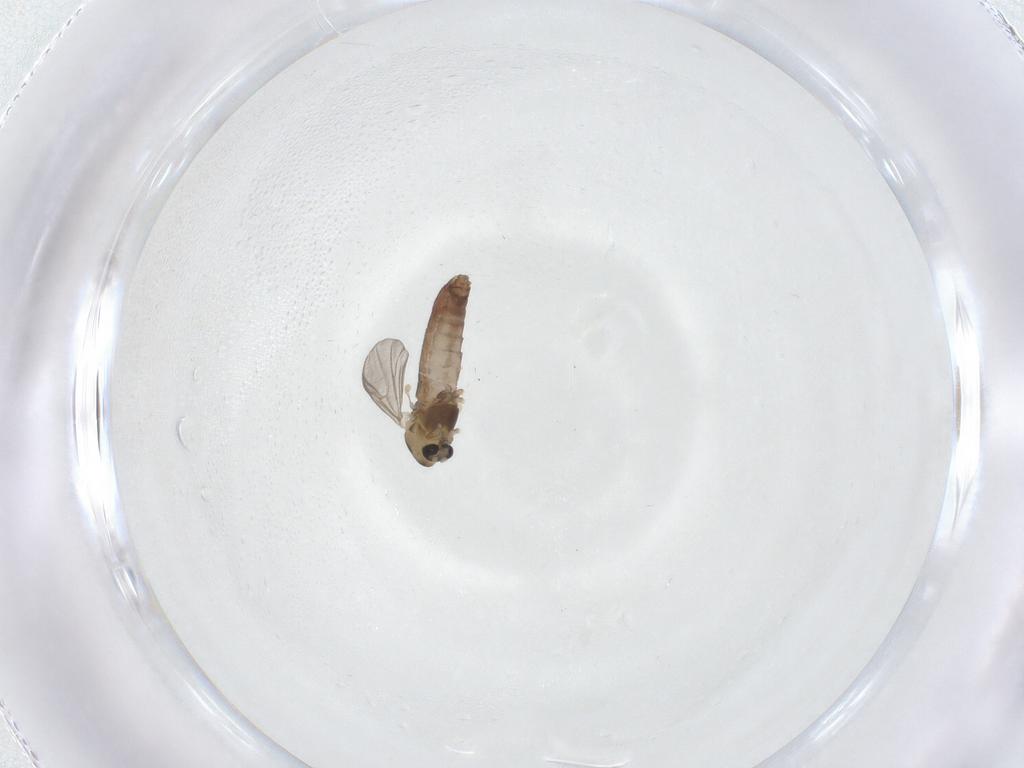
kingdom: Animalia
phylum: Arthropoda
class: Insecta
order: Diptera
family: Chironomidae
